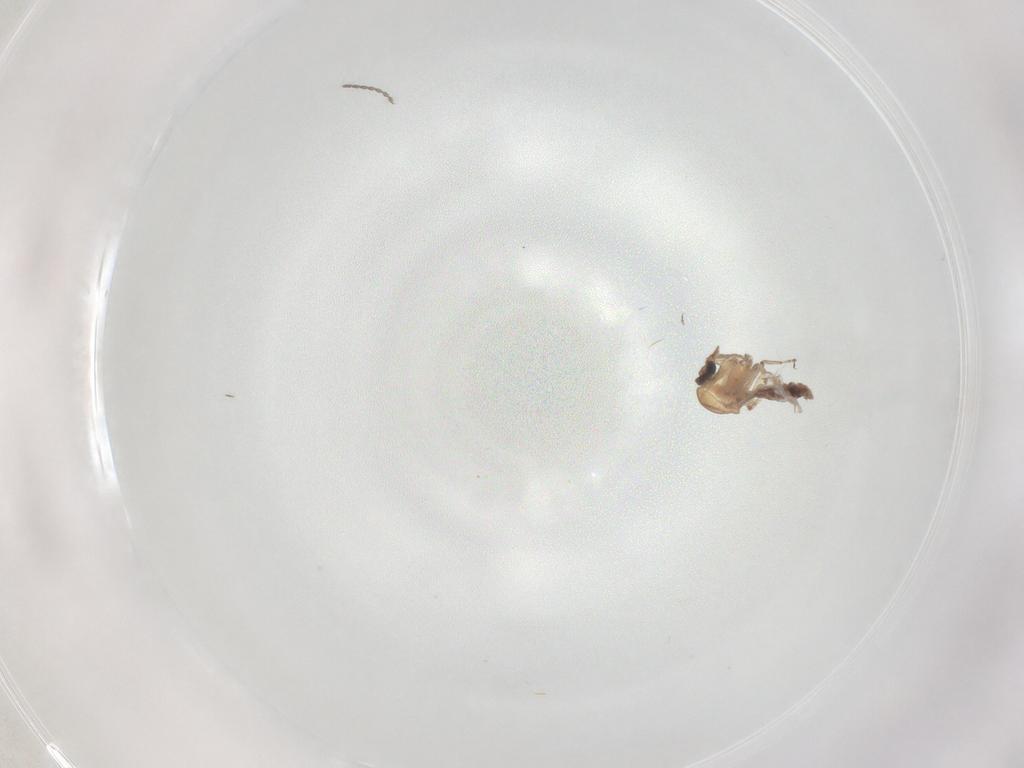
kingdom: Animalia
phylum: Arthropoda
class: Insecta
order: Diptera
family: Cecidomyiidae
